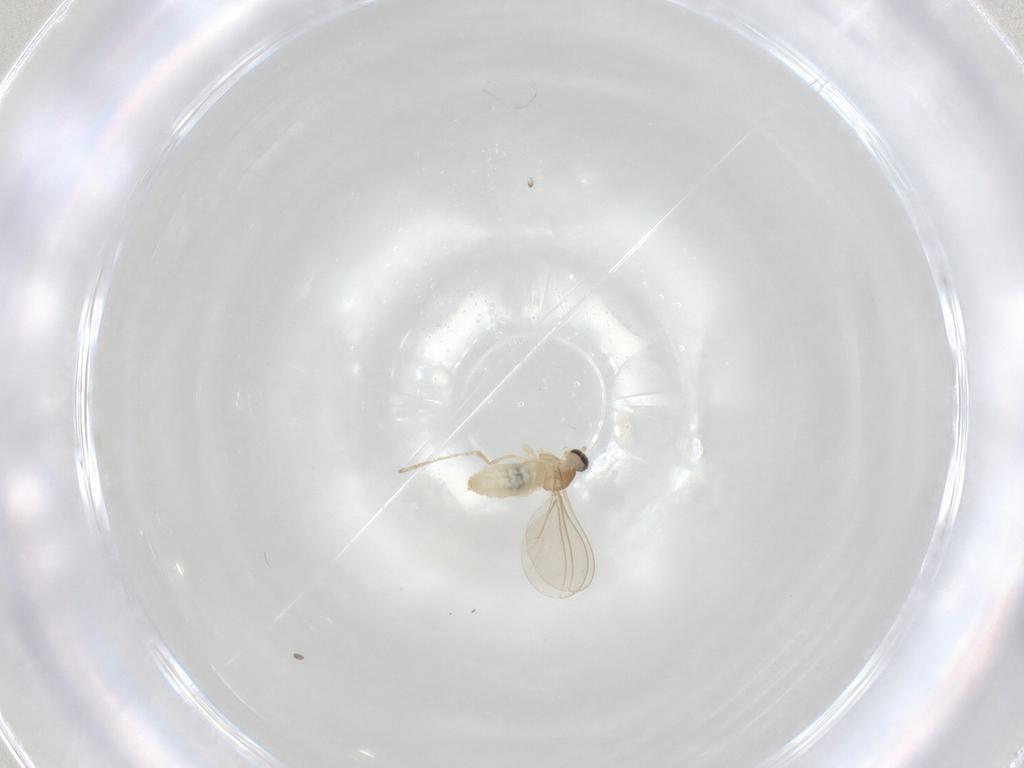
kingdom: Animalia
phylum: Arthropoda
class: Insecta
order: Diptera
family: Cecidomyiidae
